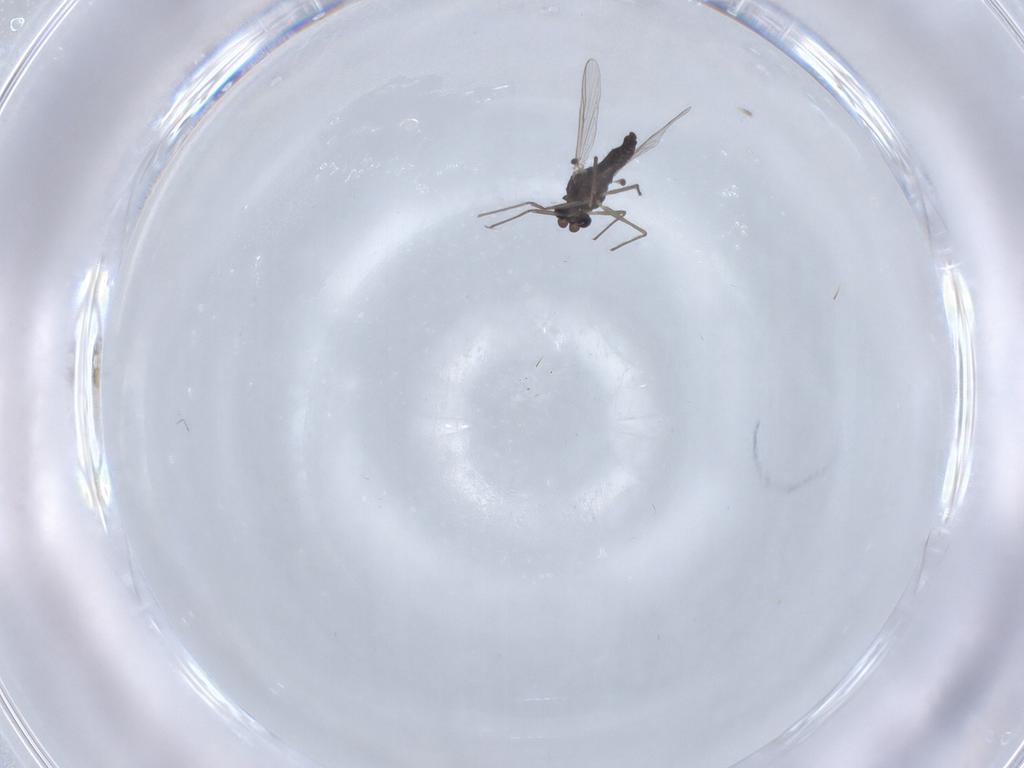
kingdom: Animalia
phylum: Arthropoda
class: Insecta
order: Diptera
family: Chironomidae
